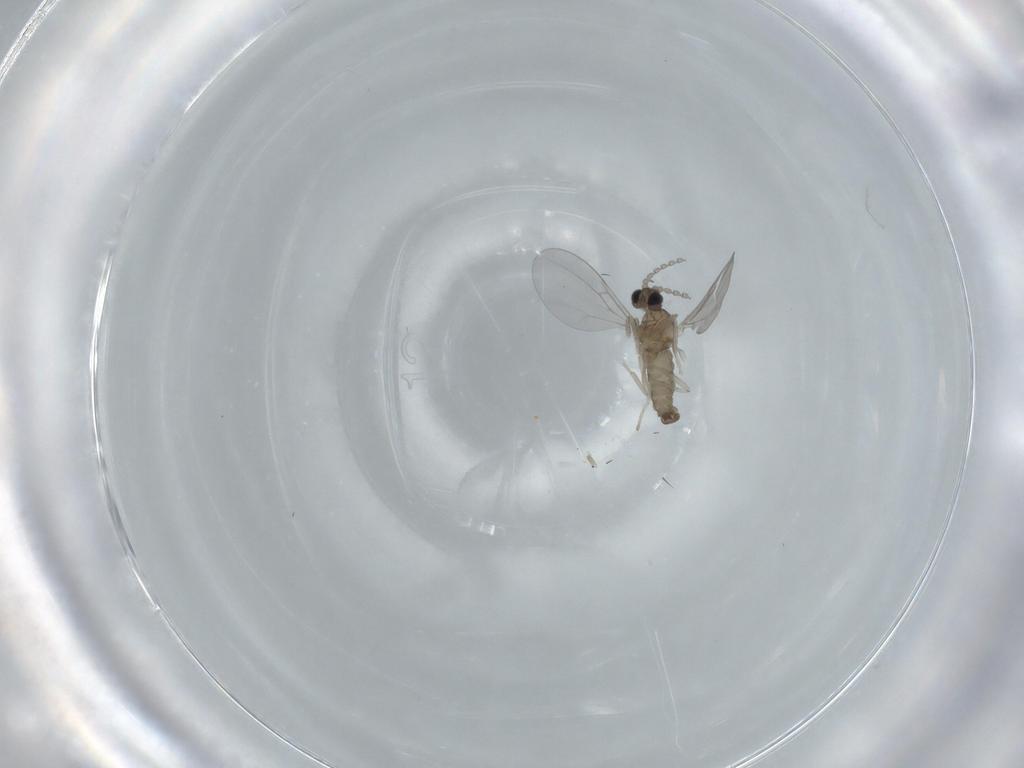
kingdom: Animalia
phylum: Arthropoda
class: Insecta
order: Diptera
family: Cecidomyiidae
